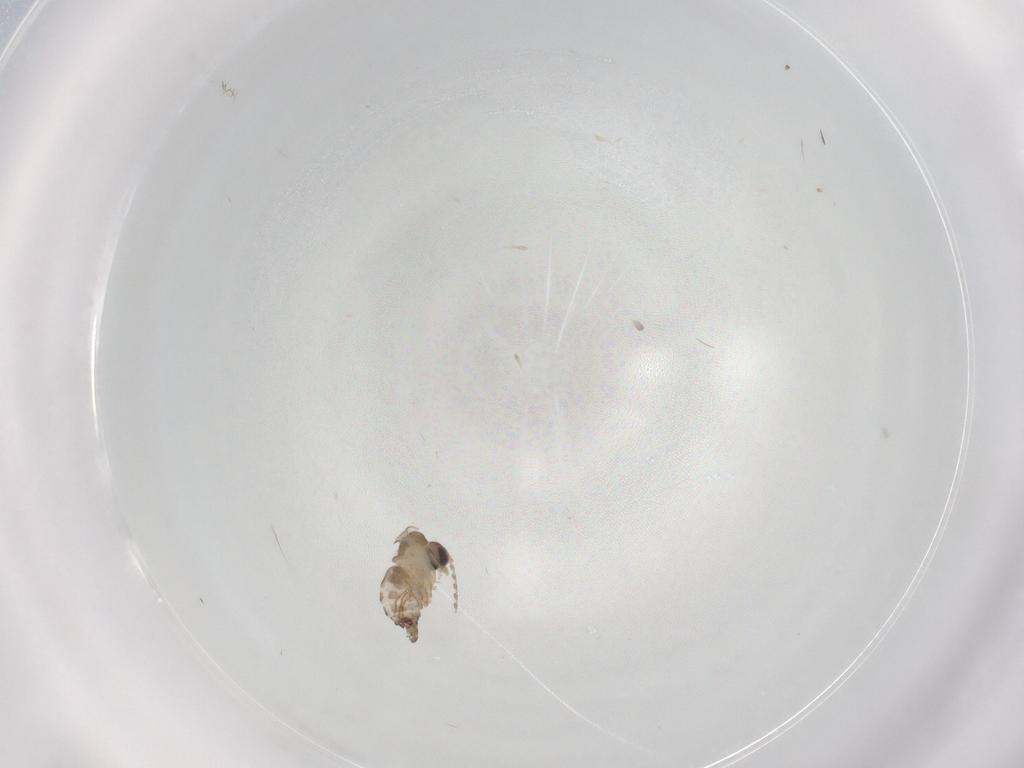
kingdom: Animalia
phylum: Arthropoda
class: Insecta
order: Diptera
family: Psychodidae
